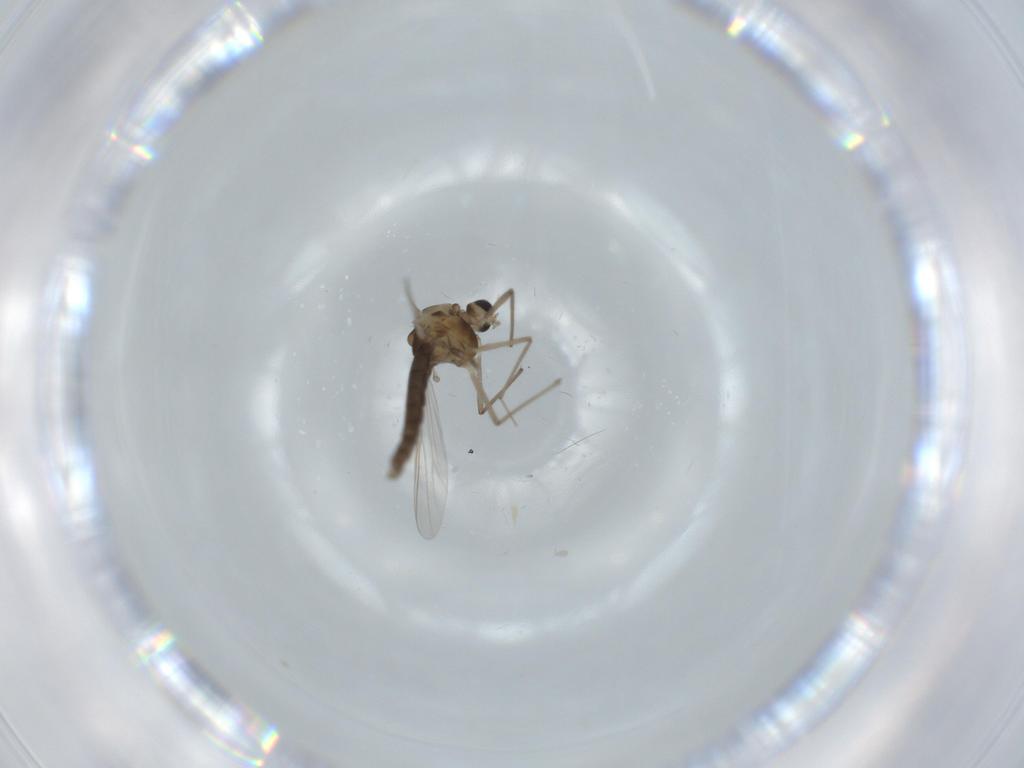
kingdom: Animalia
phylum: Arthropoda
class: Insecta
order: Diptera
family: Chironomidae
